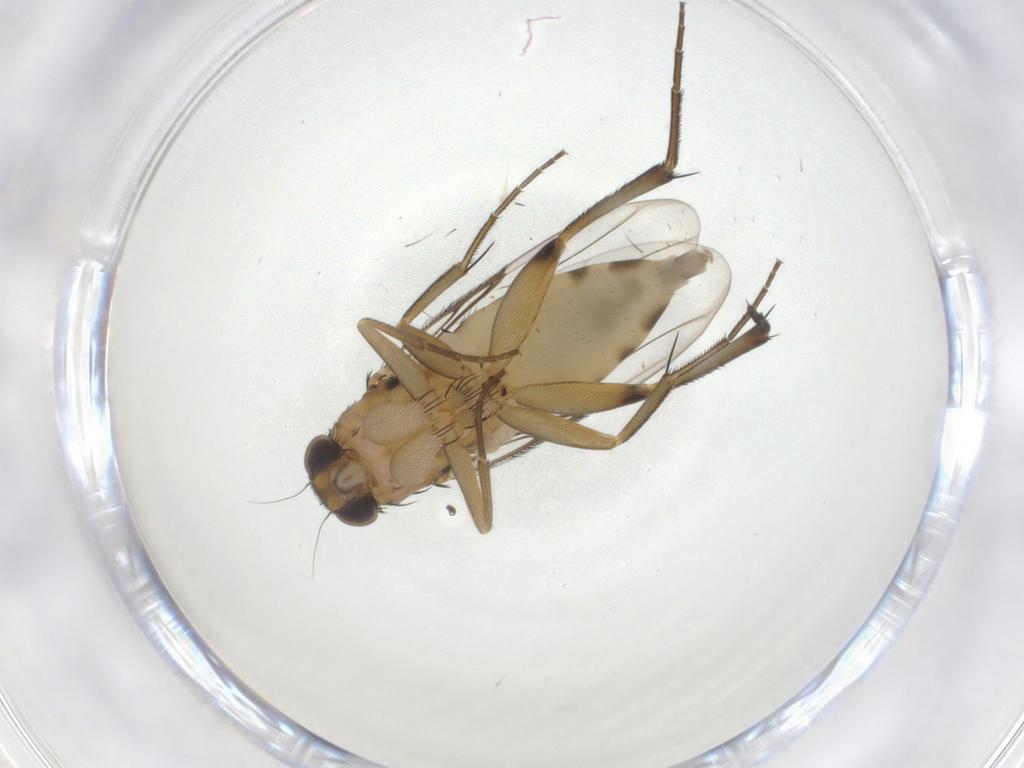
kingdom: Animalia
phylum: Arthropoda
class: Insecta
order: Diptera
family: Phoridae
